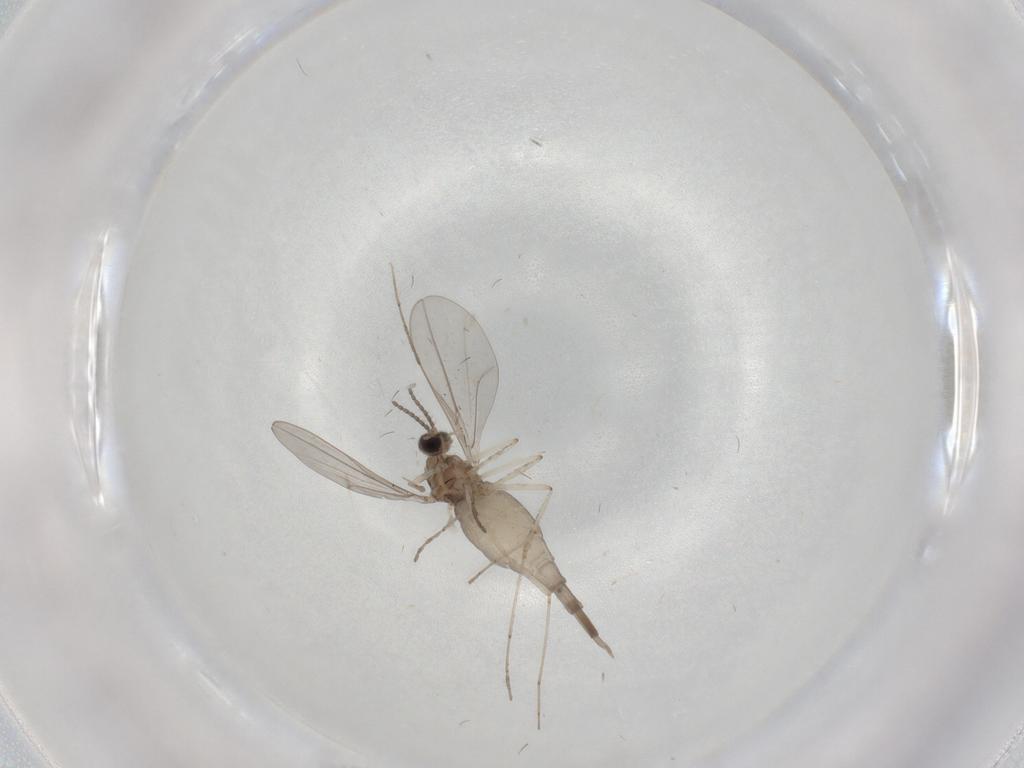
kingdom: Animalia
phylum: Arthropoda
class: Insecta
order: Diptera
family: Cecidomyiidae
